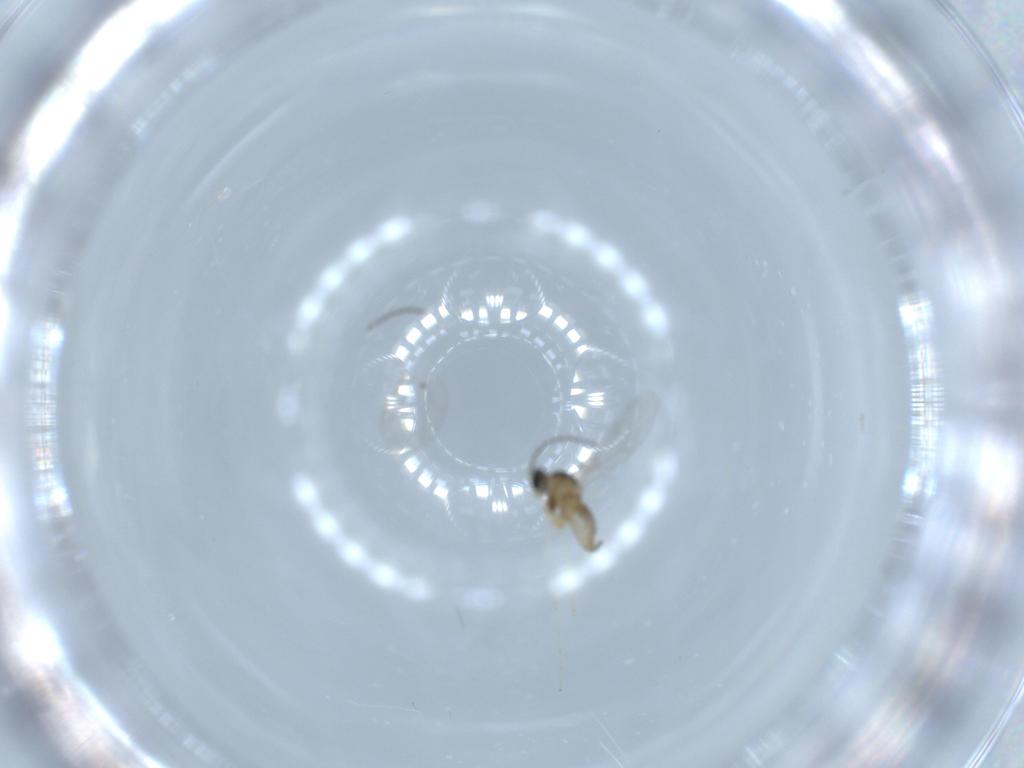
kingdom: Animalia
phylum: Arthropoda
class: Insecta
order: Diptera
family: Cecidomyiidae
